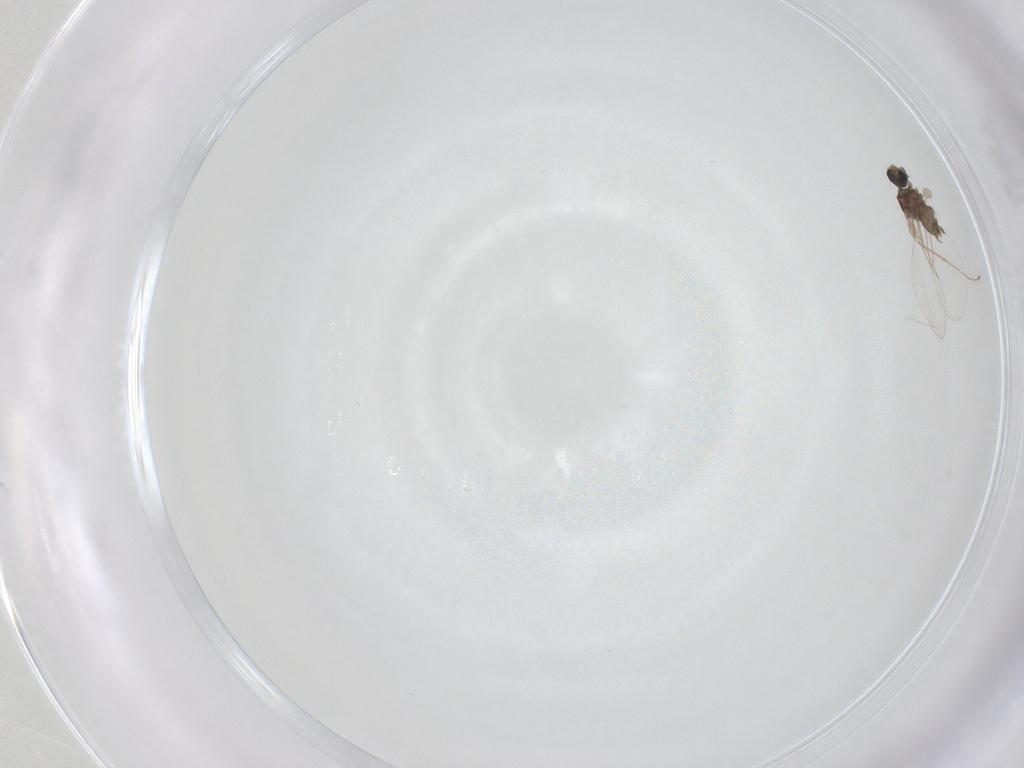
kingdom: Animalia
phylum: Arthropoda
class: Insecta
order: Diptera
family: Cecidomyiidae
